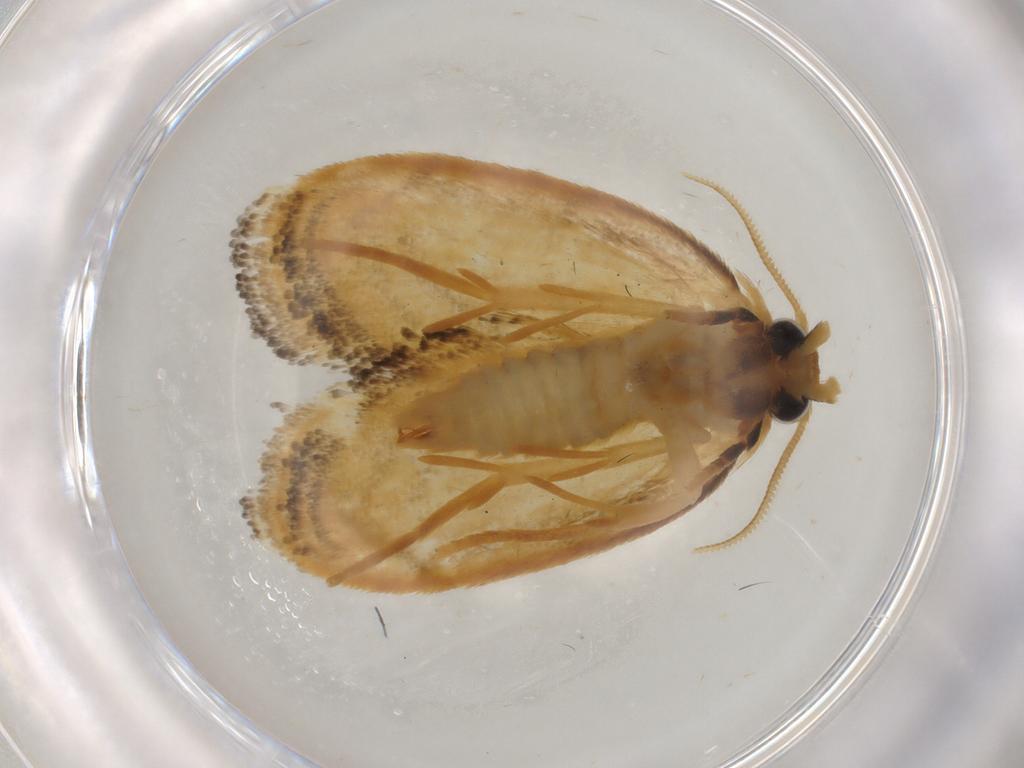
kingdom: Animalia
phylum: Arthropoda
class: Insecta
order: Lepidoptera
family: Psychidae
